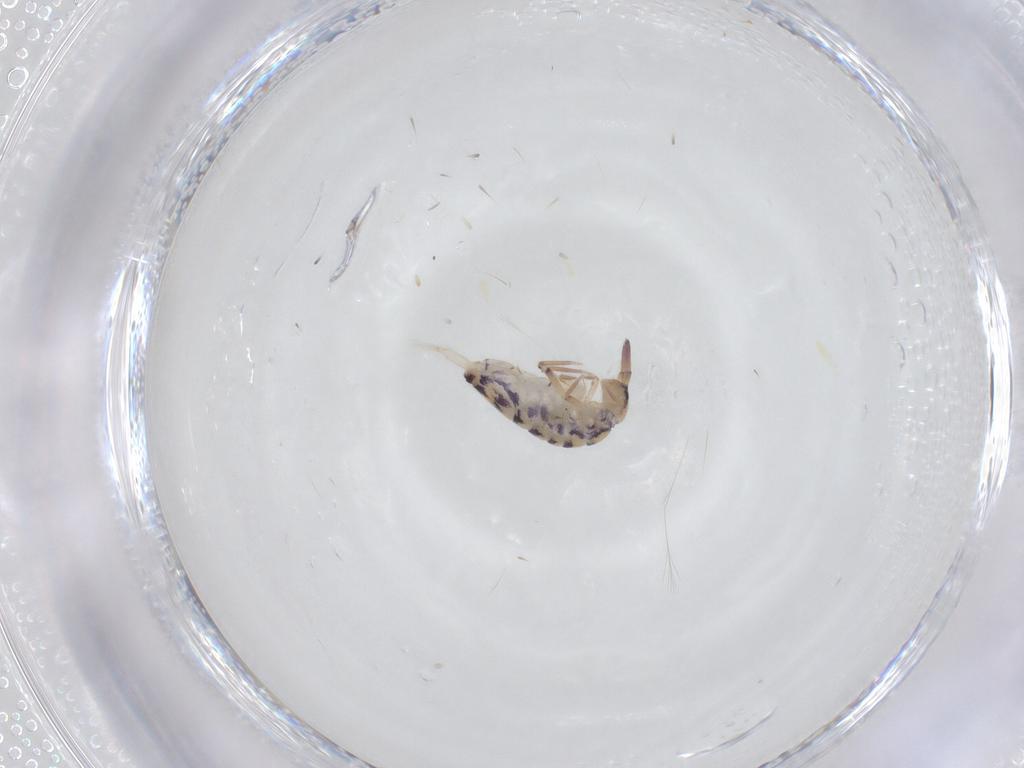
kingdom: Animalia
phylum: Arthropoda
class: Collembola
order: Entomobryomorpha
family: Entomobryidae
